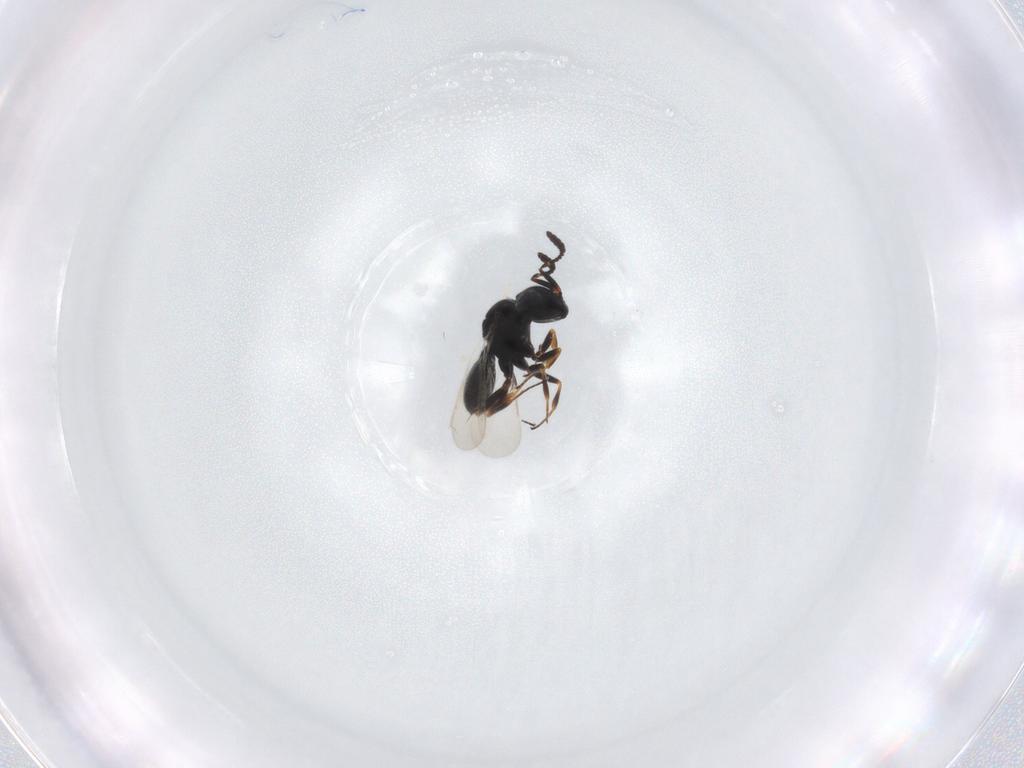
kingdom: Animalia
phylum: Arthropoda
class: Insecta
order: Hymenoptera
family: Scelionidae
